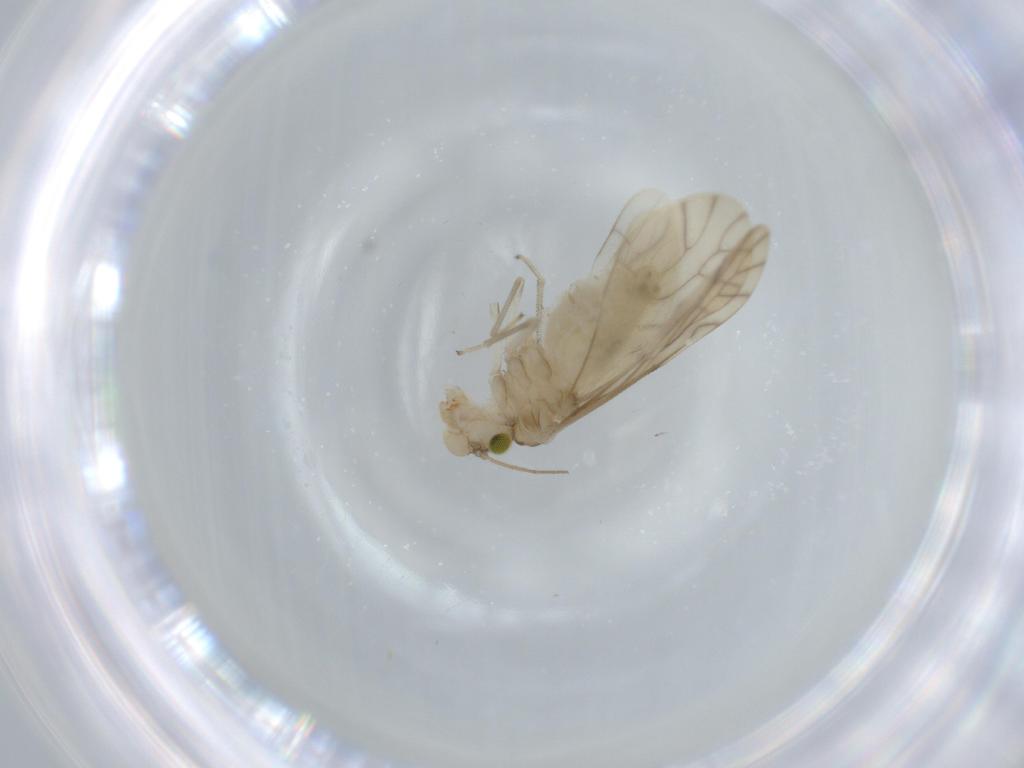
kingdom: Animalia
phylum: Arthropoda
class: Insecta
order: Psocodea
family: Caeciliusidae
